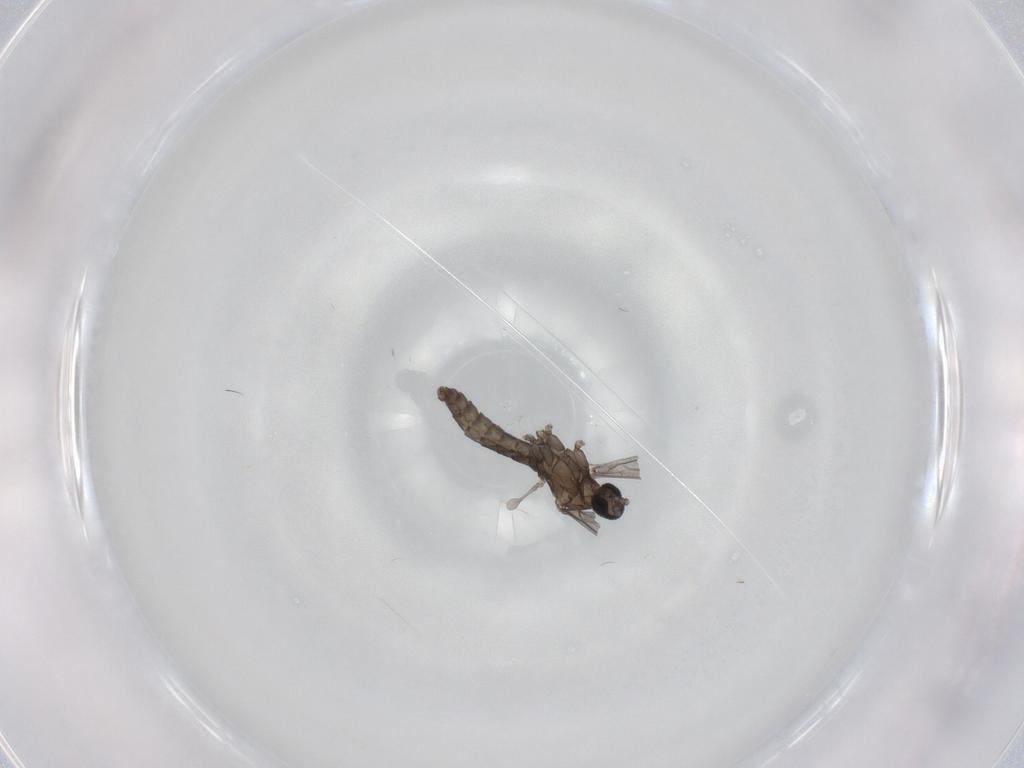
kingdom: Animalia
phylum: Arthropoda
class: Insecta
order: Diptera
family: Cecidomyiidae
